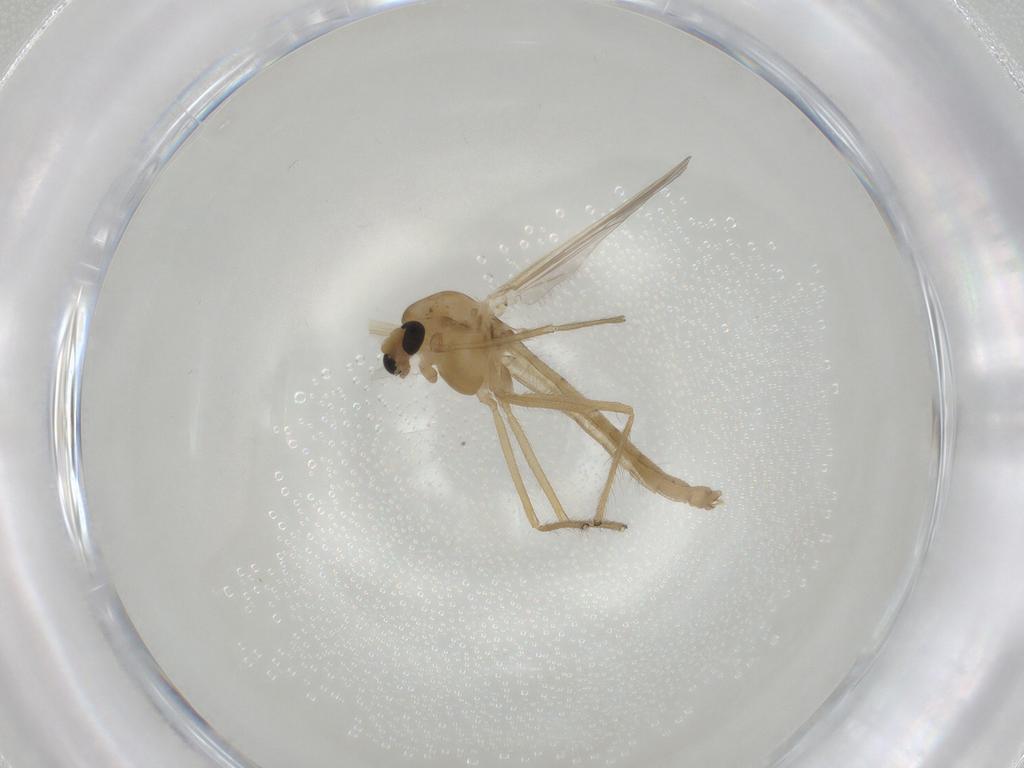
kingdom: Animalia
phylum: Arthropoda
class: Insecta
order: Diptera
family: Chironomidae
